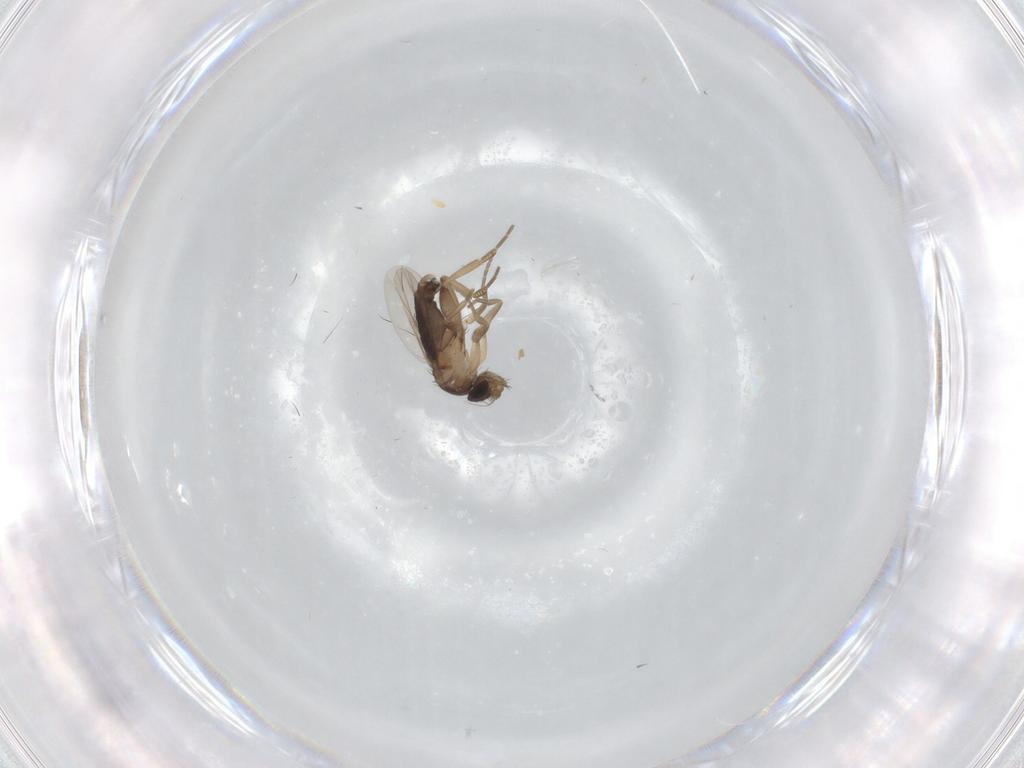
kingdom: Animalia
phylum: Arthropoda
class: Insecta
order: Diptera
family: Phoridae
